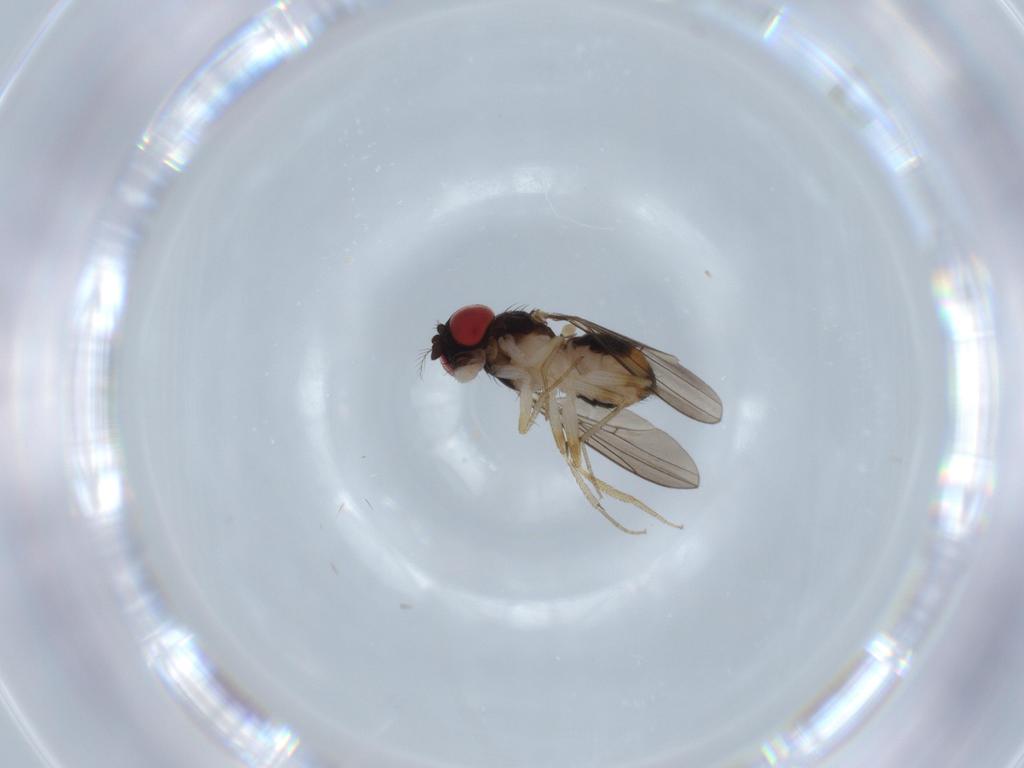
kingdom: Animalia
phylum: Arthropoda
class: Insecta
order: Diptera
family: Drosophilidae
